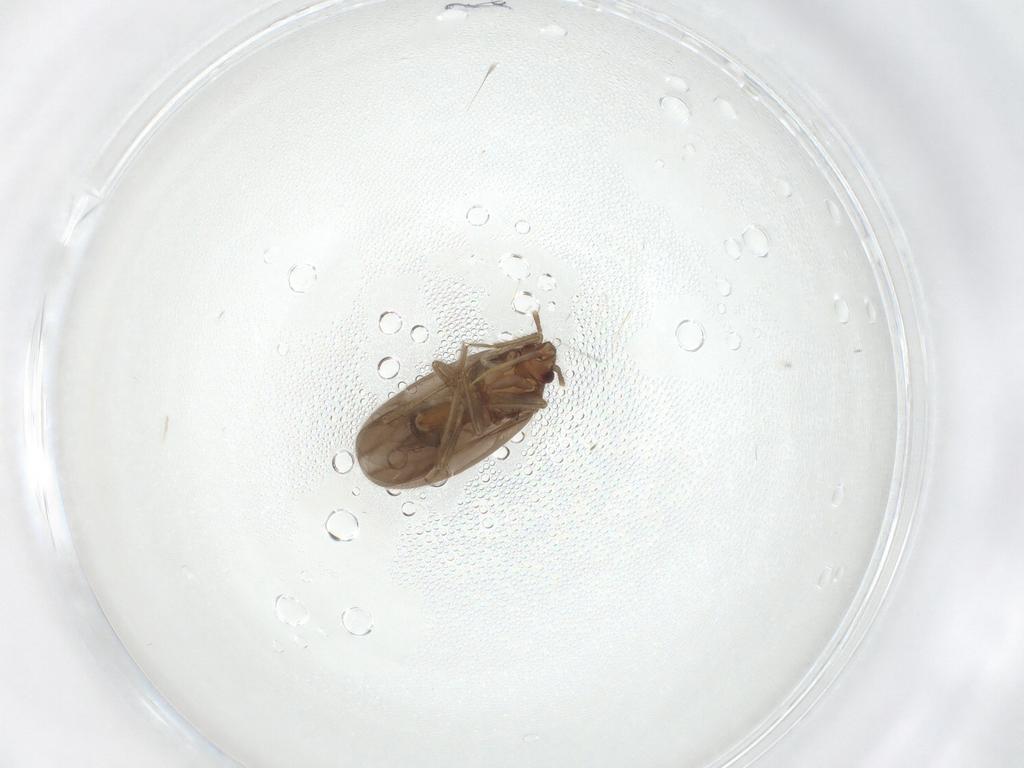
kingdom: Animalia
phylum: Arthropoda
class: Insecta
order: Hemiptera
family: Ceratocombidae
